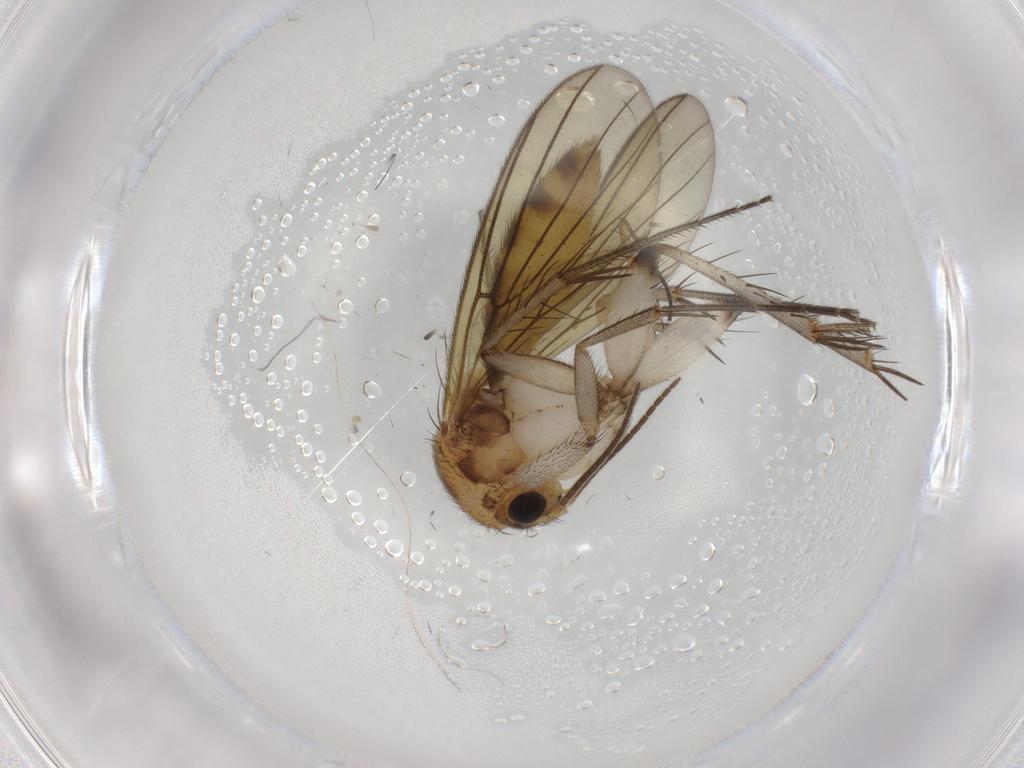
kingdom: Animalia
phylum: Arthropoda
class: Insecta
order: Diptera
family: Mycetophilidae
